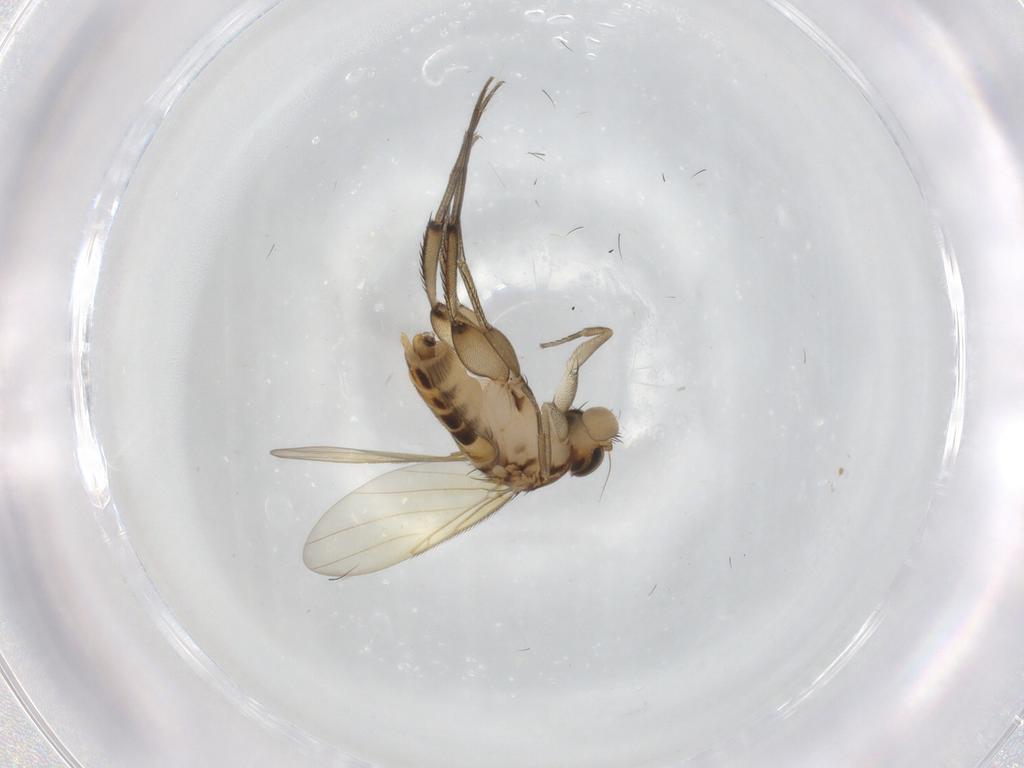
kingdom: Animalia
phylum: Arthropoda
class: Insecta
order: Diptera
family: Phoridae
